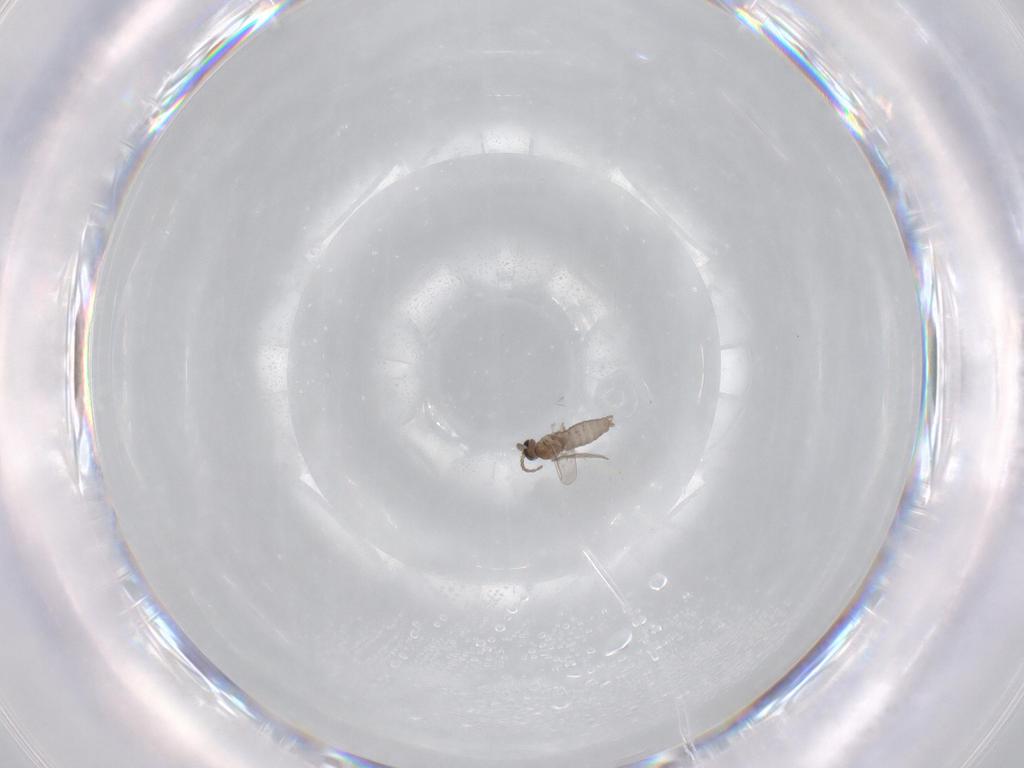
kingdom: Animalia
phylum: Arthropoda
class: Insecta
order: Diptera
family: Cecidomyiidae
